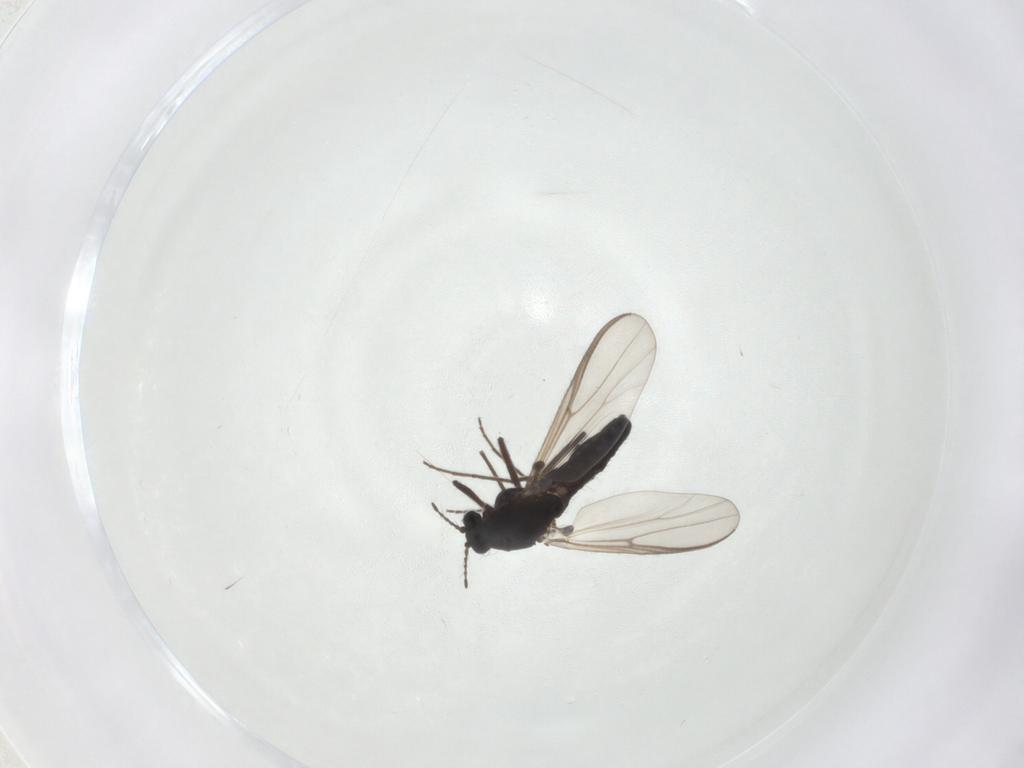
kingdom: Animalia
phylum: Arthropoda
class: Insecta
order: Diptera
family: Chironomidae
